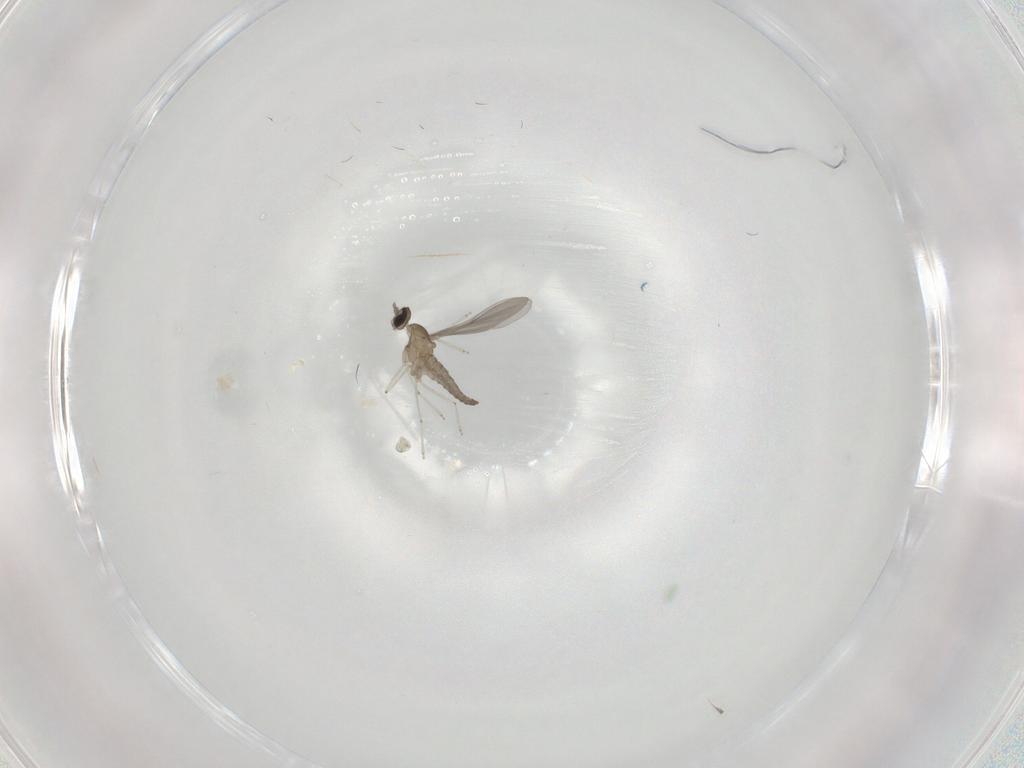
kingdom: Animalia
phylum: Arthropoda
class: Insecta
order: Diptera
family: Cecidomyiidae
